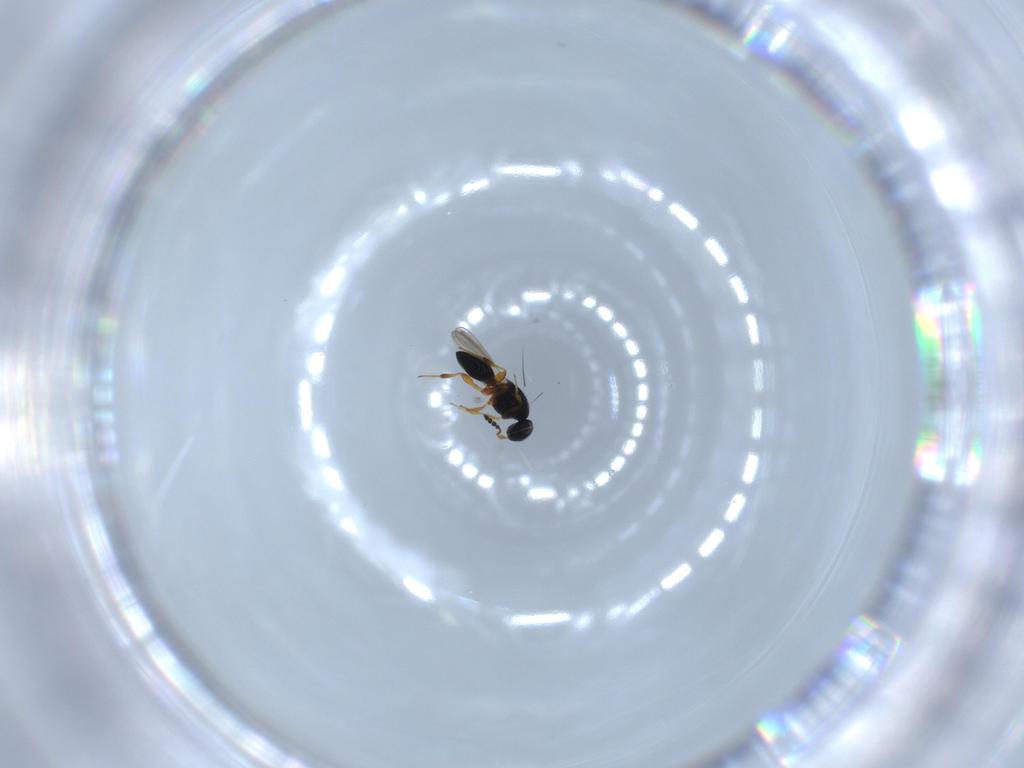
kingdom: Animalia
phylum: Arthropoda
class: Insecta
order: Hymenoptera
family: Platygastridae
